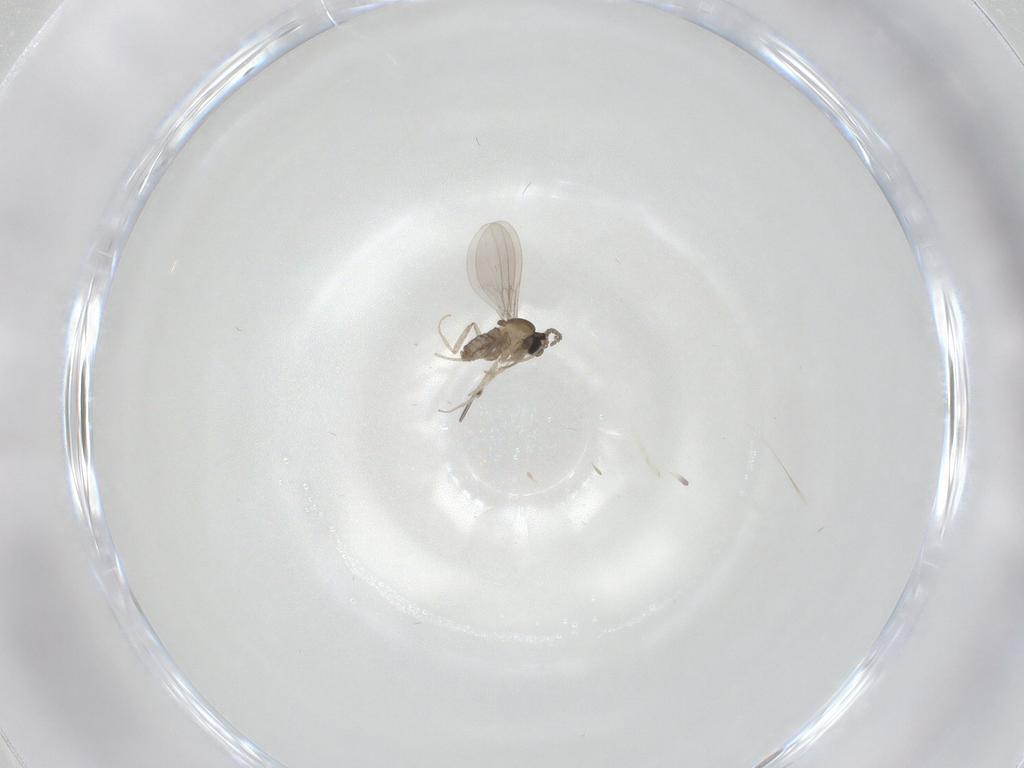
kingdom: Animalia
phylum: Arthropoda
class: Insecta
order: Diptera
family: Cecidomyiidae
